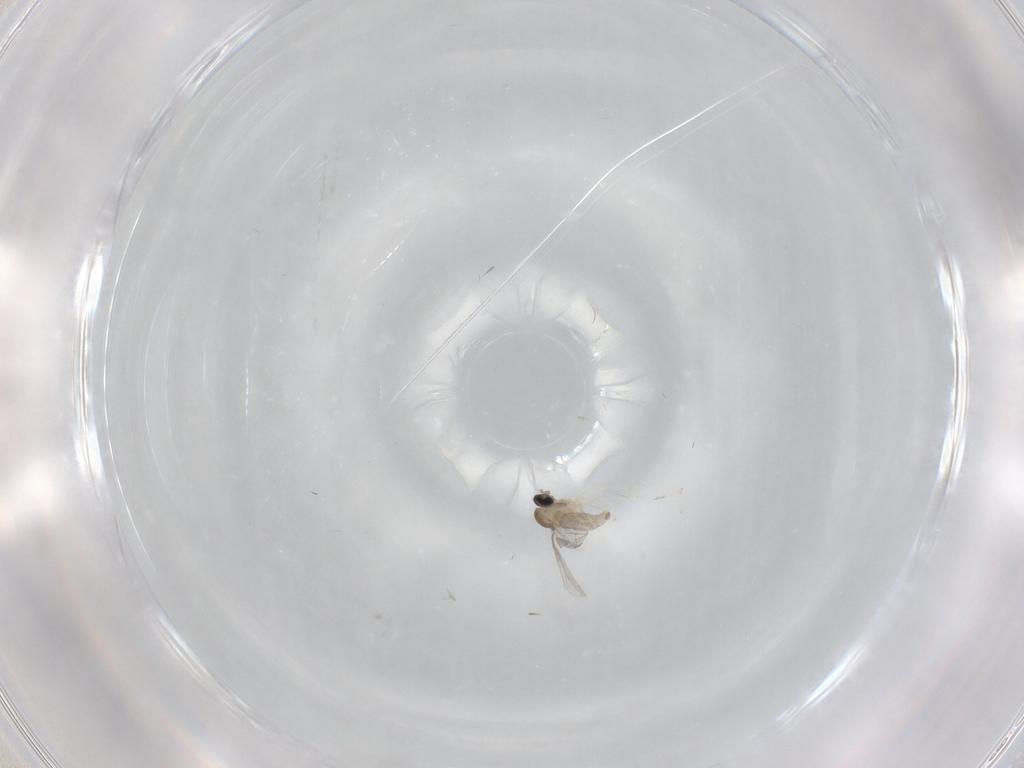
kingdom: Animalia
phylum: Arthropoda
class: Insecta
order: Diptera
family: Cecidomyiidae
